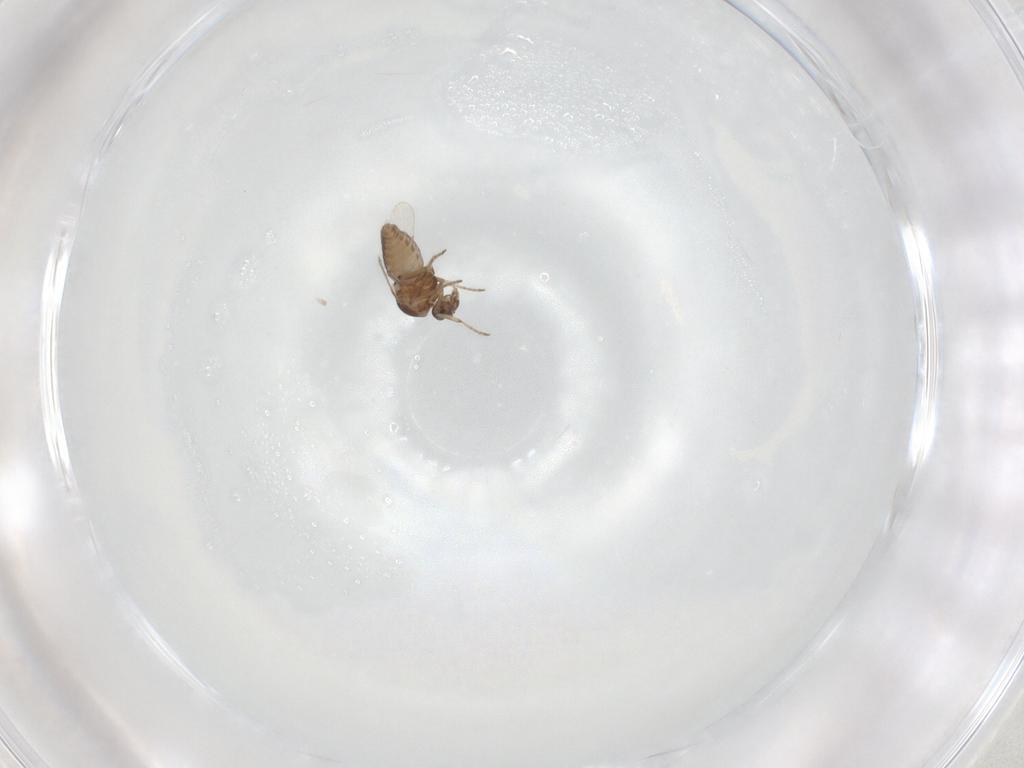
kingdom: Animalia
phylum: Arthropoda
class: Insecta
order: Diptera
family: Ceratopogonidae
